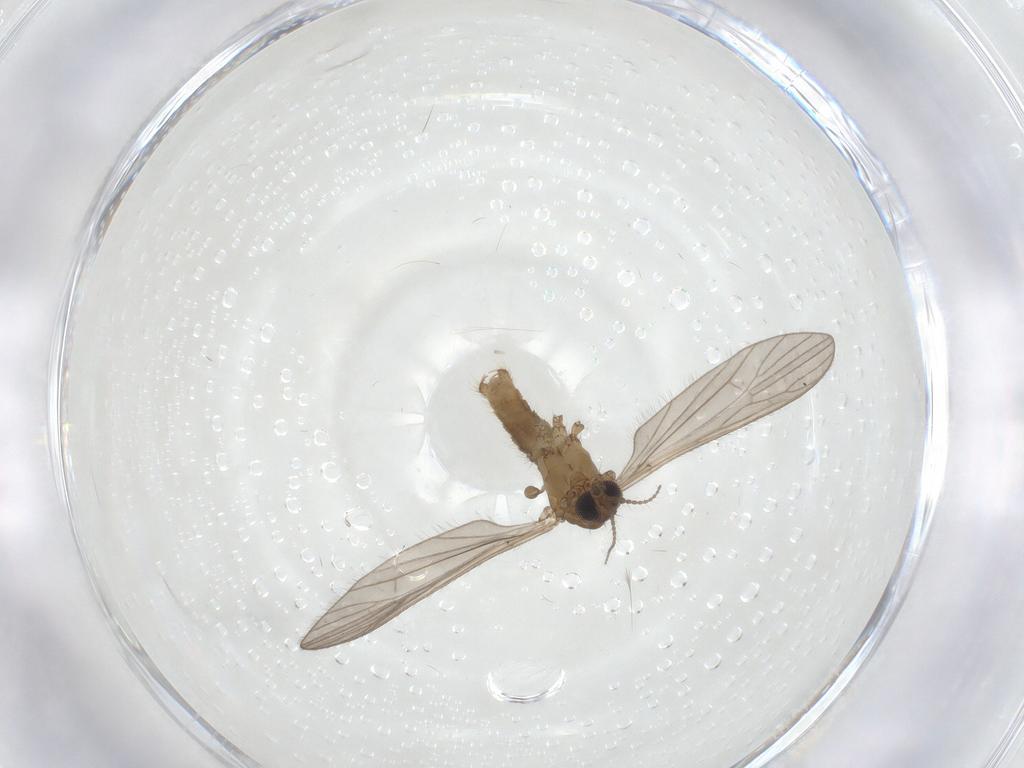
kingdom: Animalia
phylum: Arthropoda
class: Insecta
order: Diptera
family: Limoniidae
